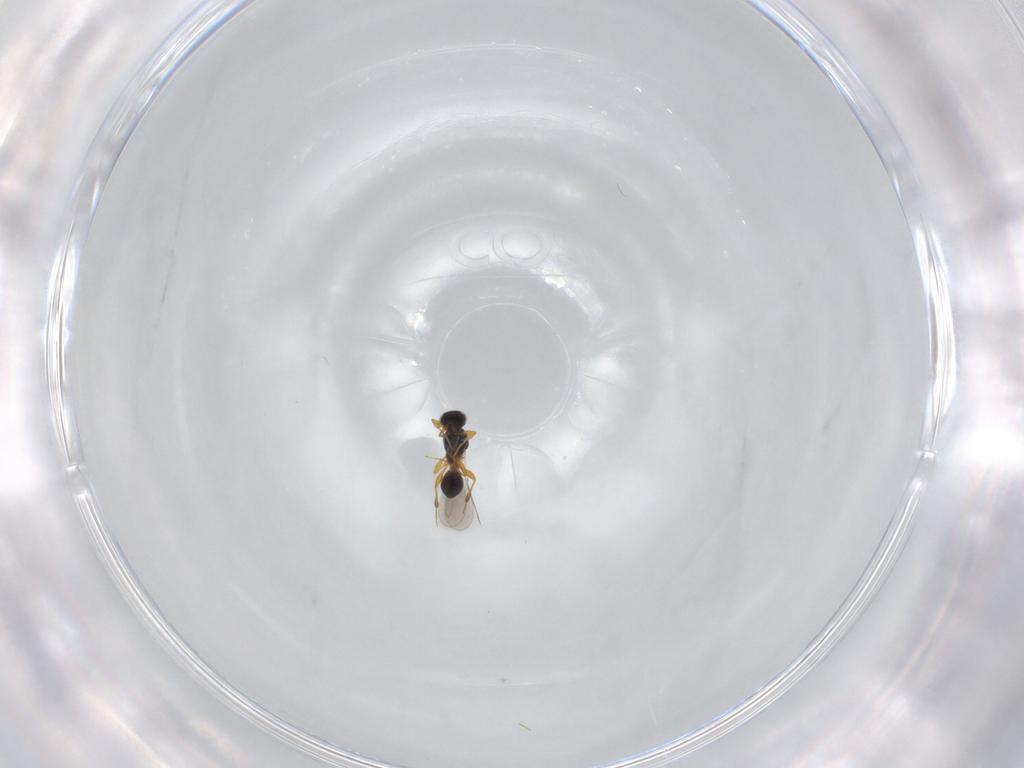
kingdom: Animalia
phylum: Arthropoda
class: Insecta
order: Hymenoptera
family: Platygastridae
